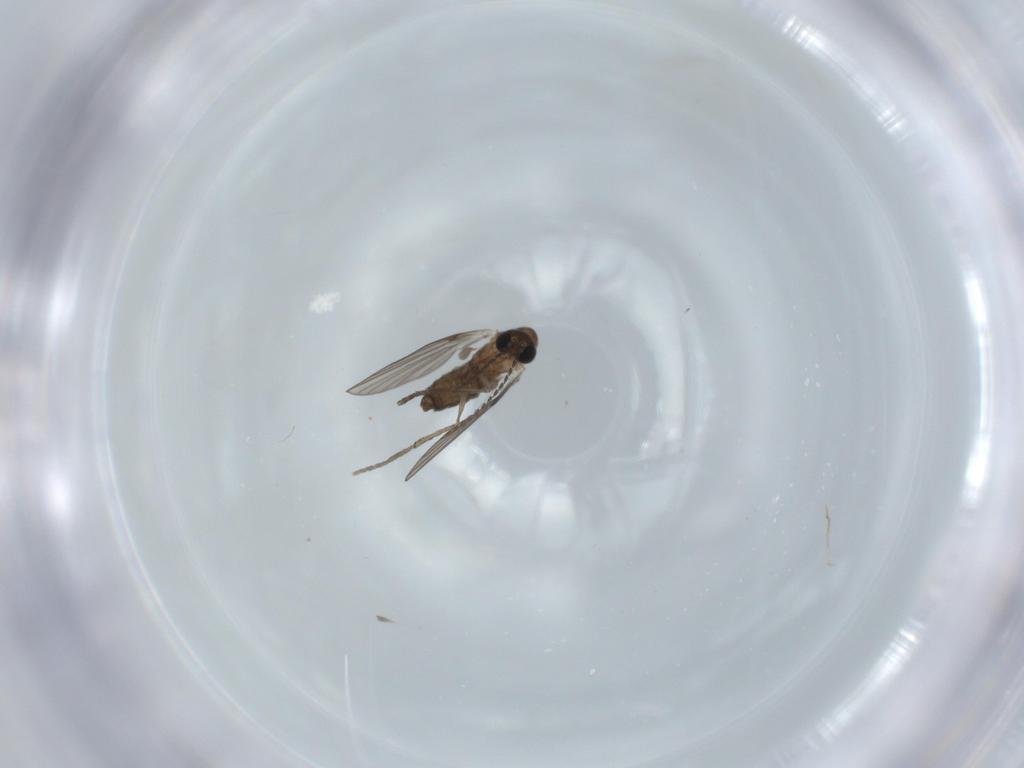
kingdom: Animalia
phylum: Arthropoda
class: Insecta
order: Diptera
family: Psychodidae
